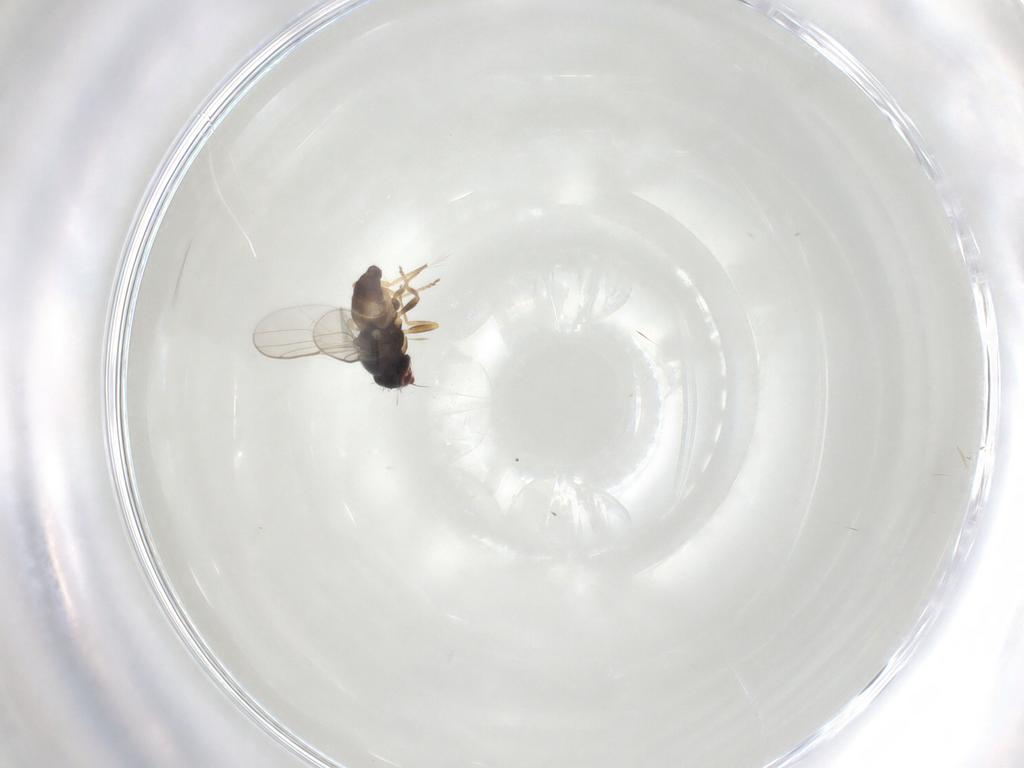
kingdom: Animalia
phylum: Arthropoda
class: Insecta
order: Diptera
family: Chloropidae
